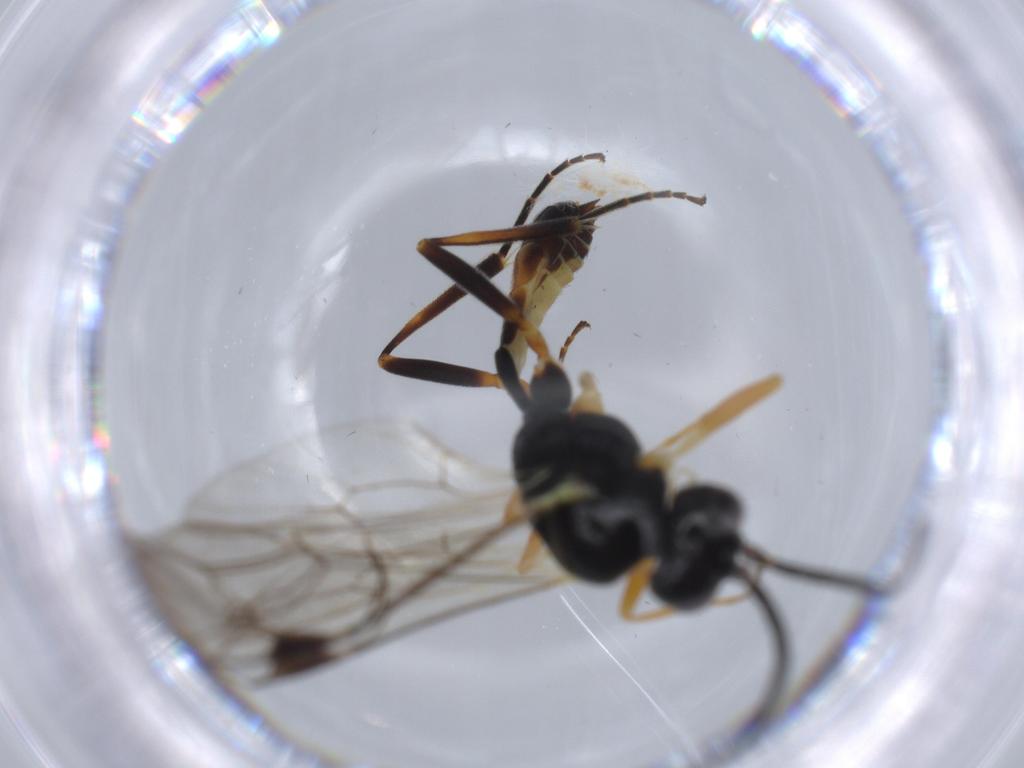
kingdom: Animalia
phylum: Arthropoda
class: Insecta
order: Hymenoptera
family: Ichneumonidae
